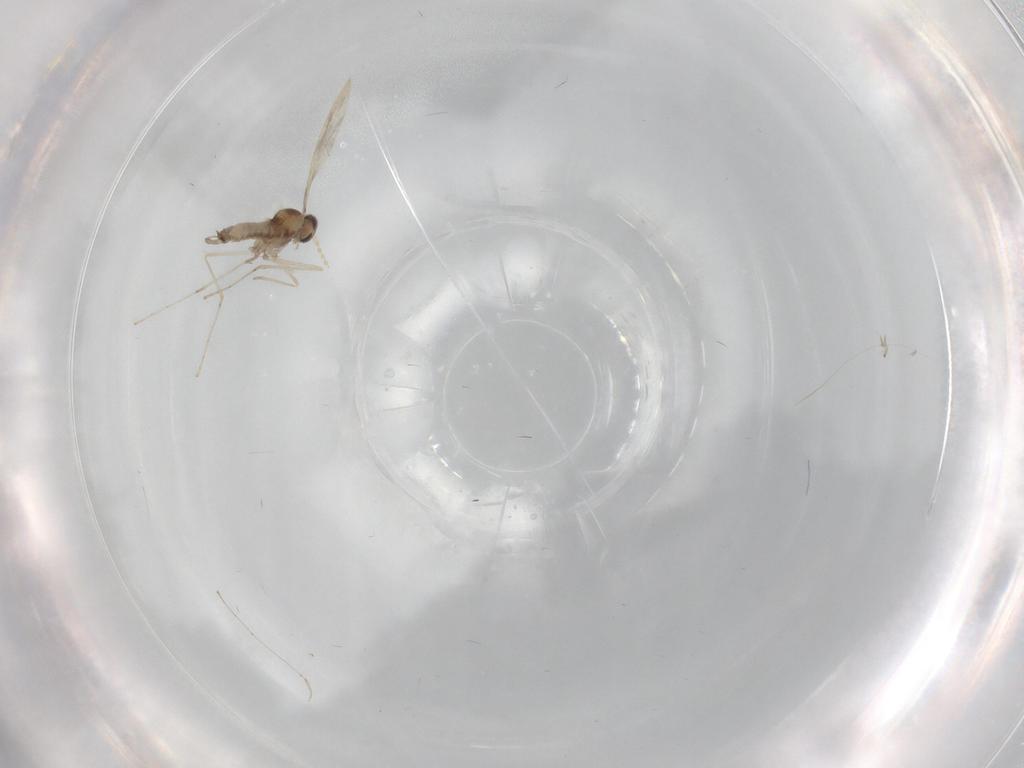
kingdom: Animalia
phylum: Arthropoda
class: Insecta
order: Diptera
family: Cecidomyiidae
